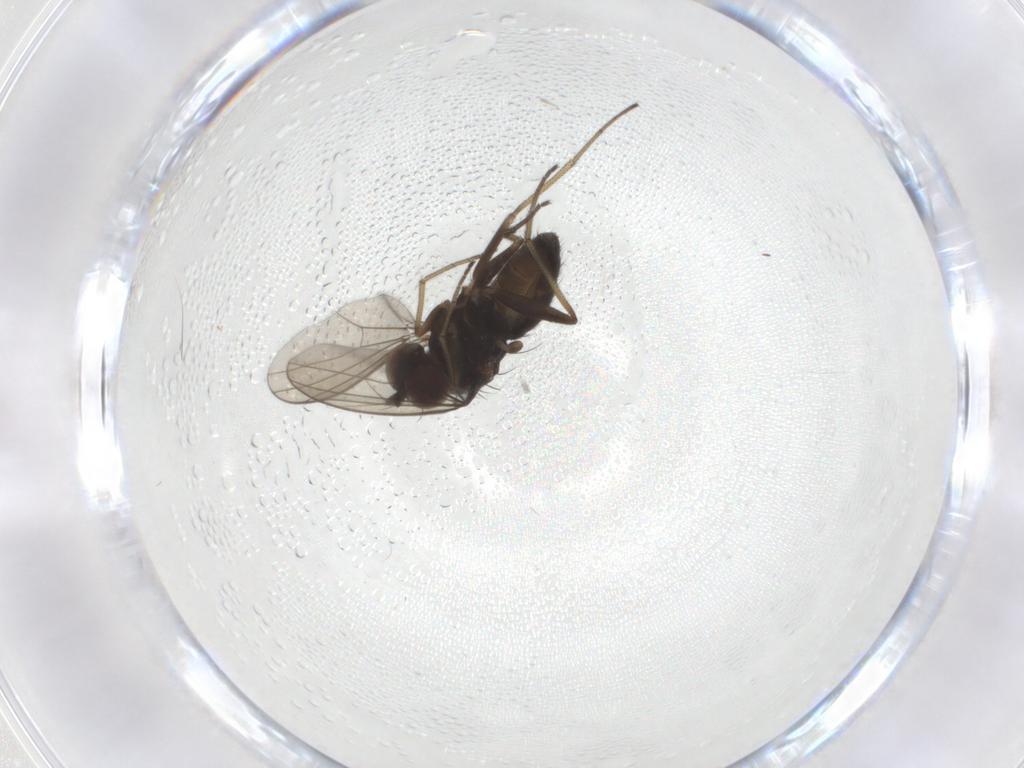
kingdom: Animalia
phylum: Arthropoda
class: Insecta
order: Diptera
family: Dolichopodidae
